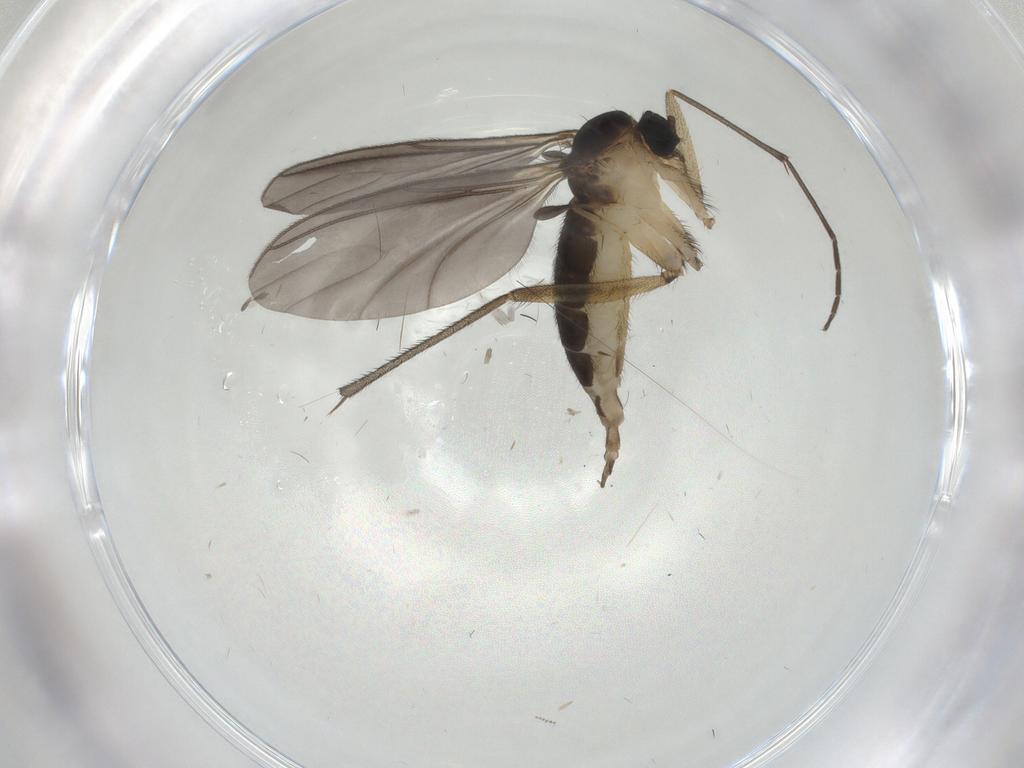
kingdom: Animalia
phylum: Arthropoda
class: Insecta
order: Diptera
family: Sciaridae
